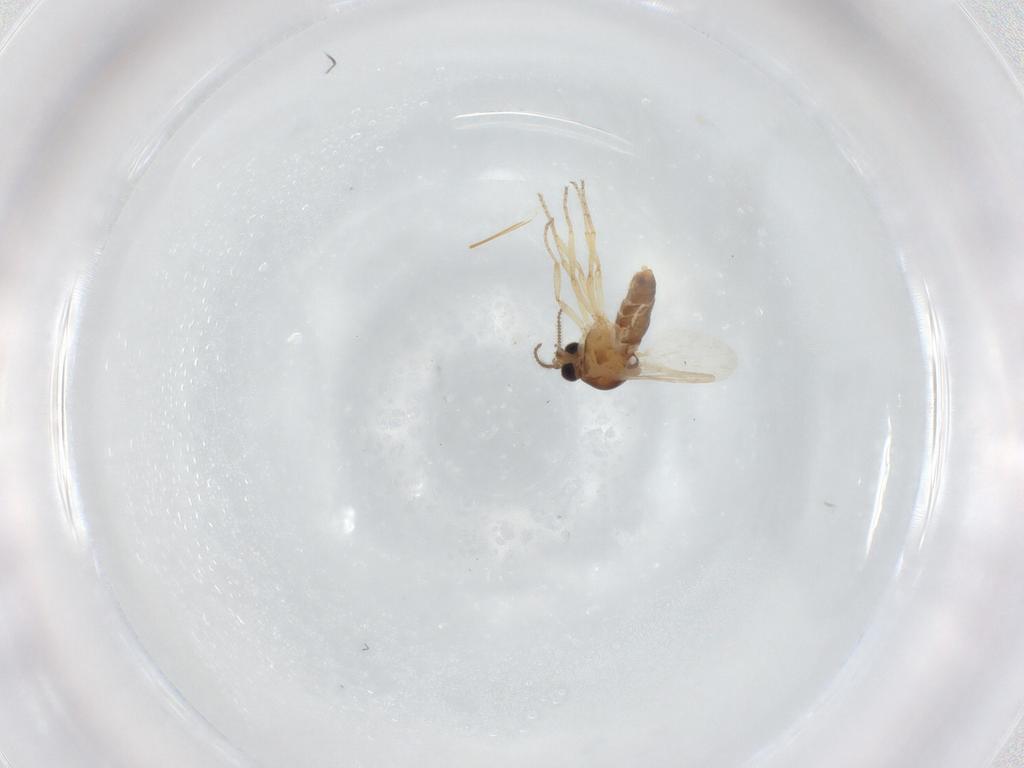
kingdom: Animalia
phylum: Arthropoda
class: Insecta
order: Diptera
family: Ceratopogonidae
